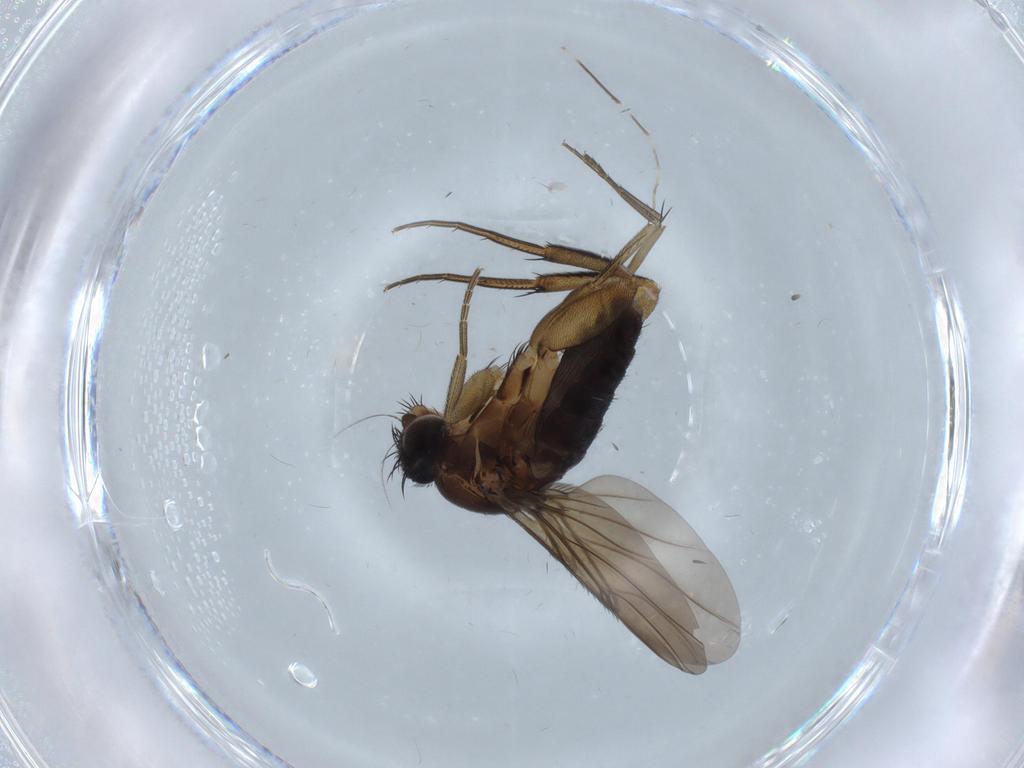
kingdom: Animalia
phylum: Arthropoda
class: Insecta
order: Diptera
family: Phoridae
